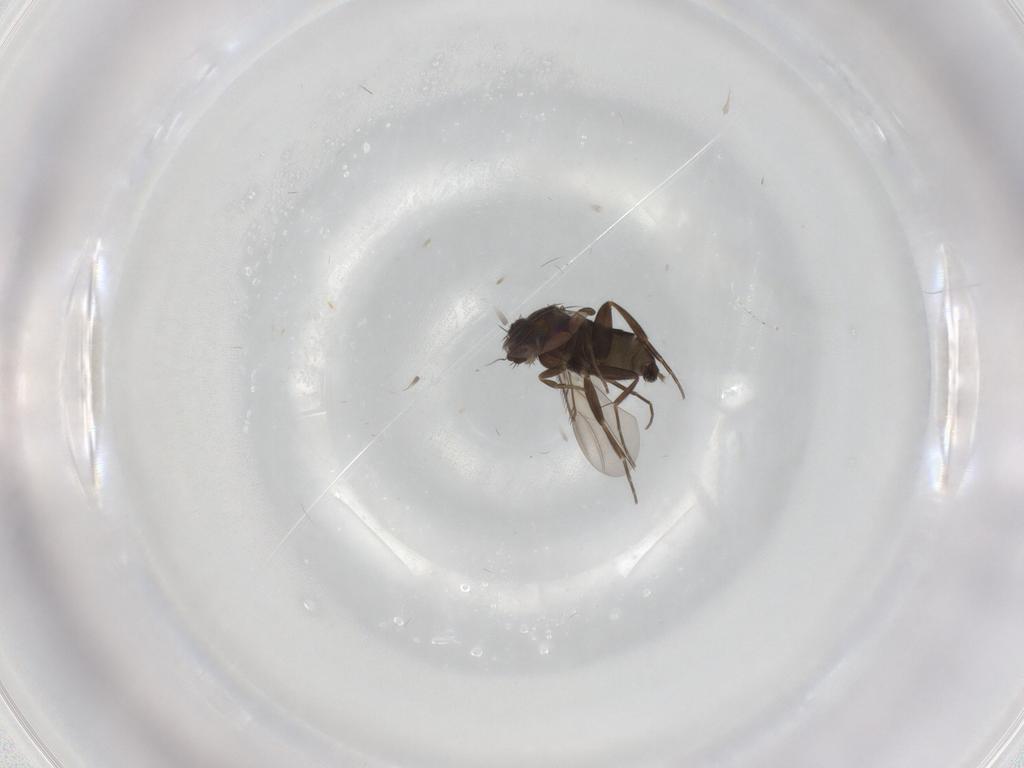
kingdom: Animalia
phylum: Arthropoda
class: Insecta
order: Diptera
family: Phoridae
